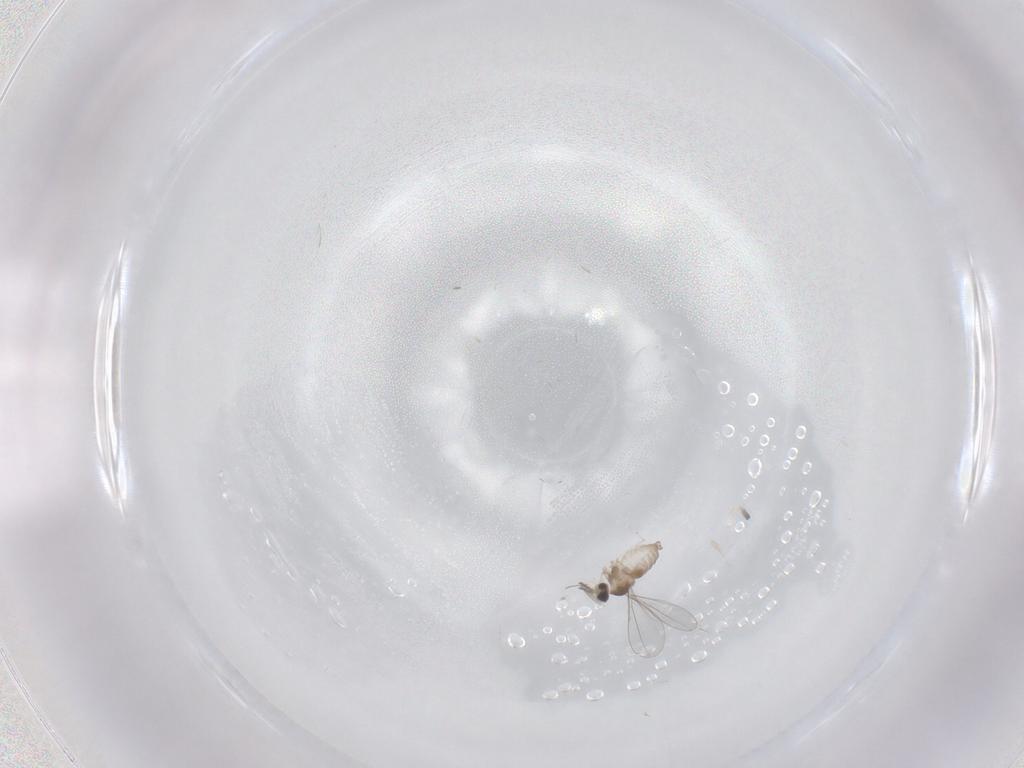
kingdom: Animalia
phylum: Arthropoda
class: Insecta
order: Diptera
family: Cecidomyiidae
